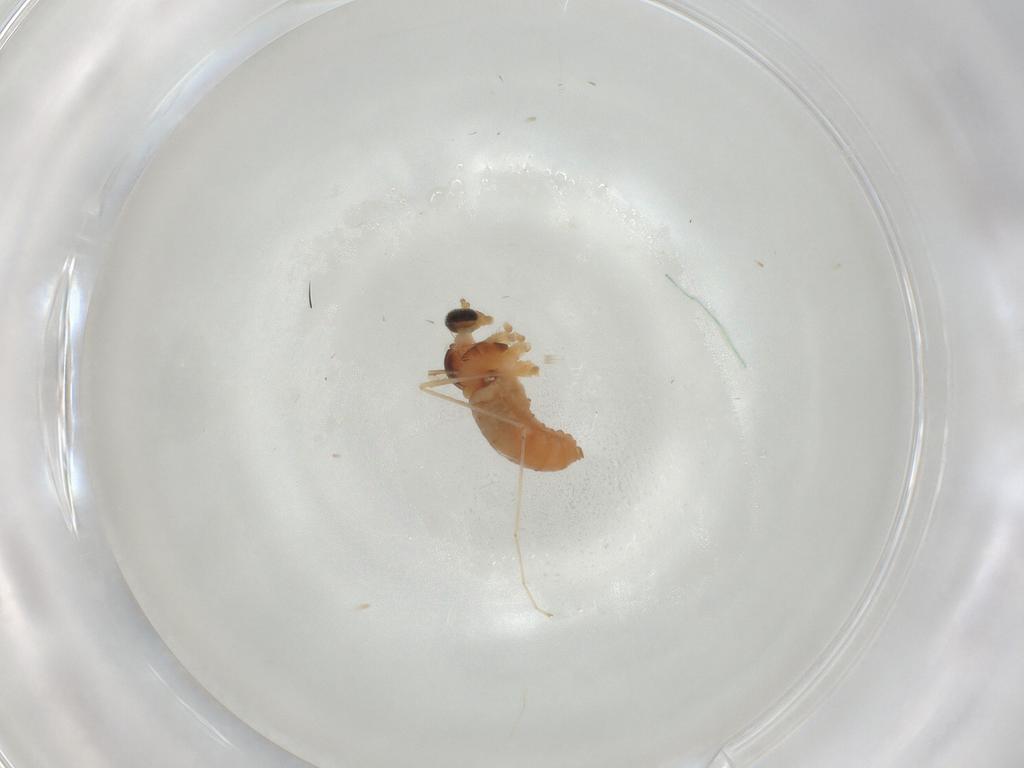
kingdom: Animalia
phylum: Arthropoda
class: Insecta
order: Diptera
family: Cecidomyiidae
